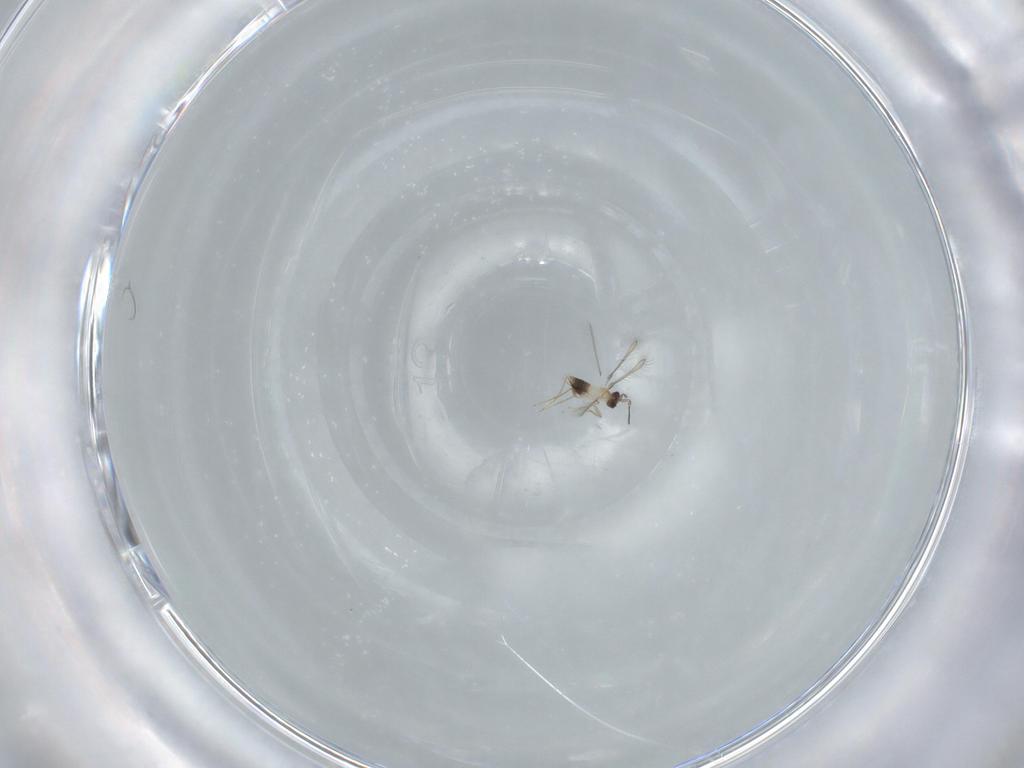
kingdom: Animalia
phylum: Arthropoda
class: Insecta
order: Hymenoptera
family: Mymaridae
